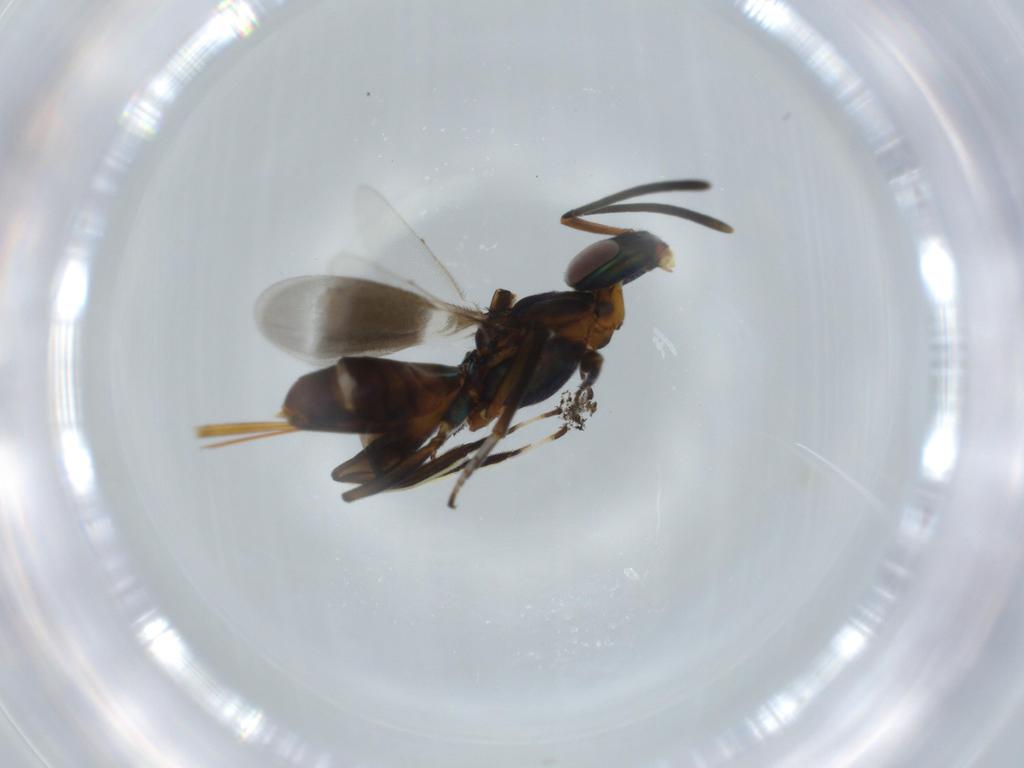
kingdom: Animalia
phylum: Arthropoda
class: Insecta
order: Hymenoptera
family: Eupelmidae
